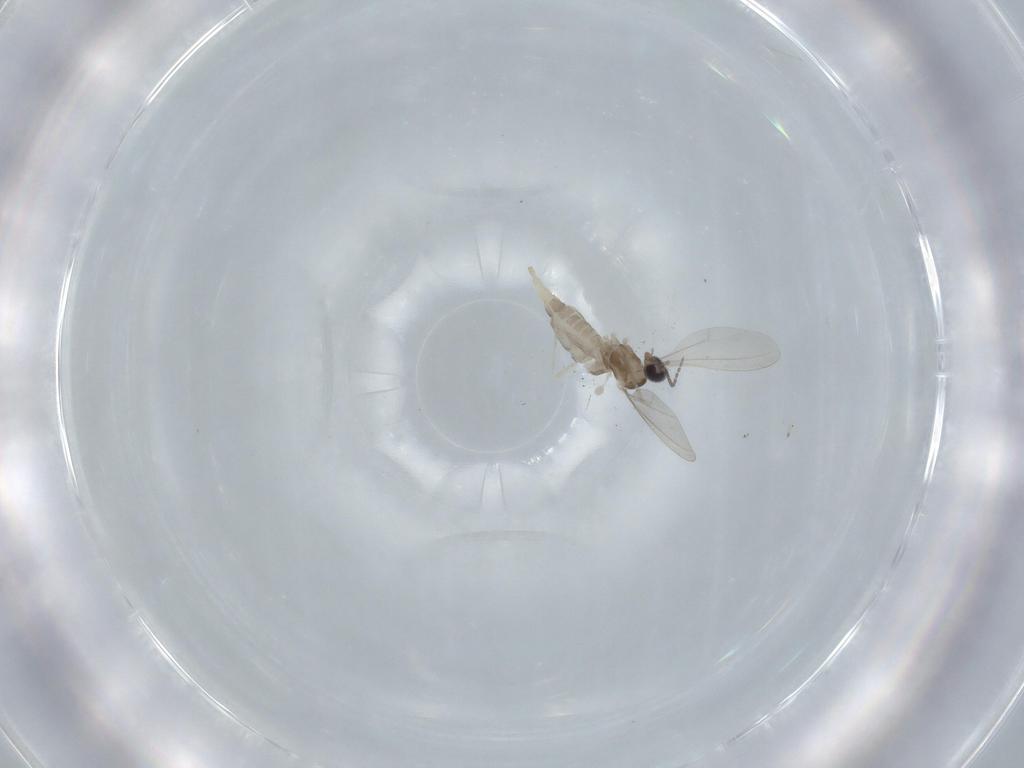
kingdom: Animalia
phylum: Arthropoda
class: Insecta
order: Diptera
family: Cecidomyiidae
